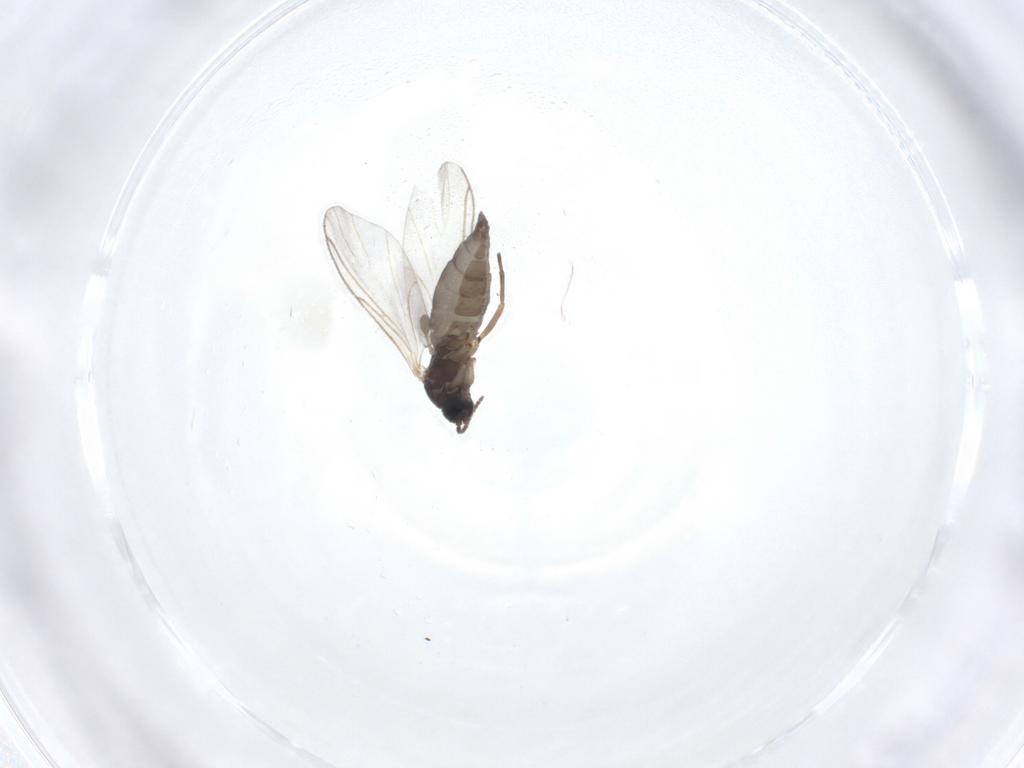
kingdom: Animalia
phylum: Arthropoda
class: Insecta
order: Diptera
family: Sciaridae
